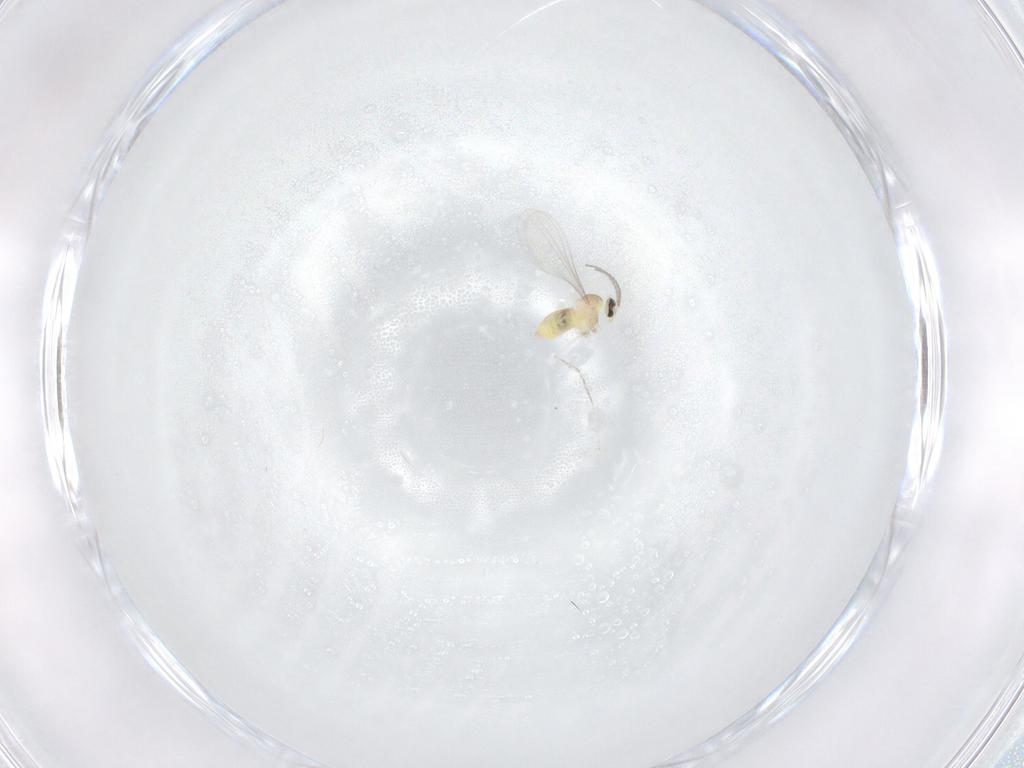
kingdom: Animalia
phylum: Arthropoda
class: Insecta
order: Diptera
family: Cecidomyiidae
